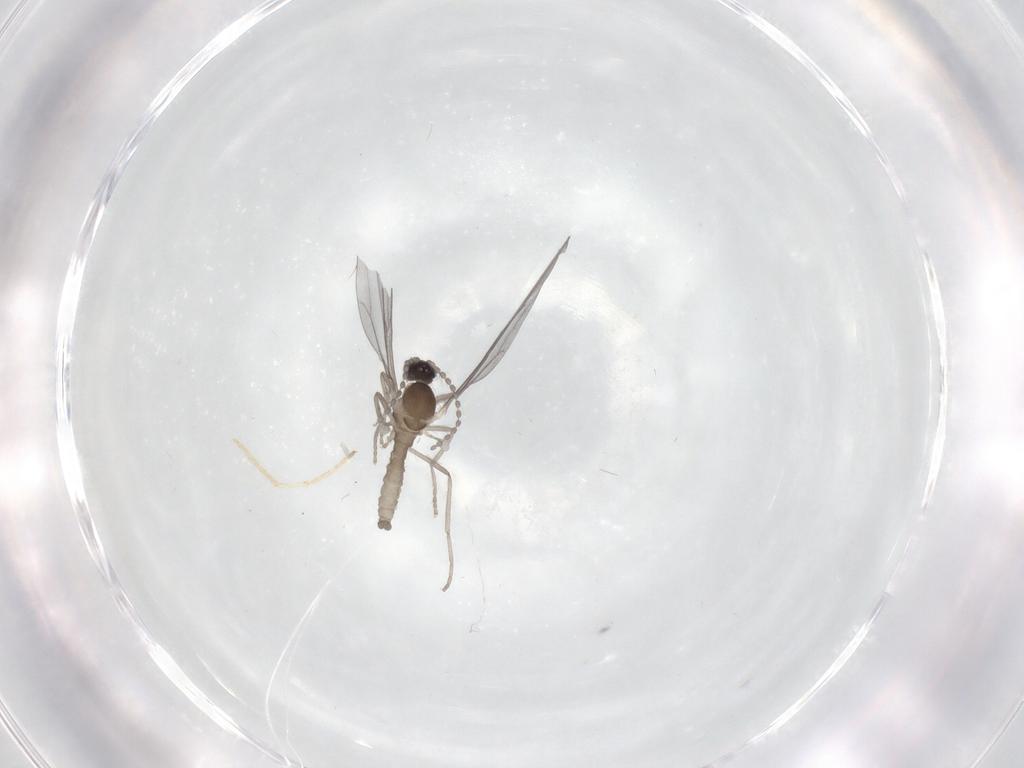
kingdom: Animalia
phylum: Arthropoda
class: Insecta
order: Diptera
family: Cecidomyiidae
